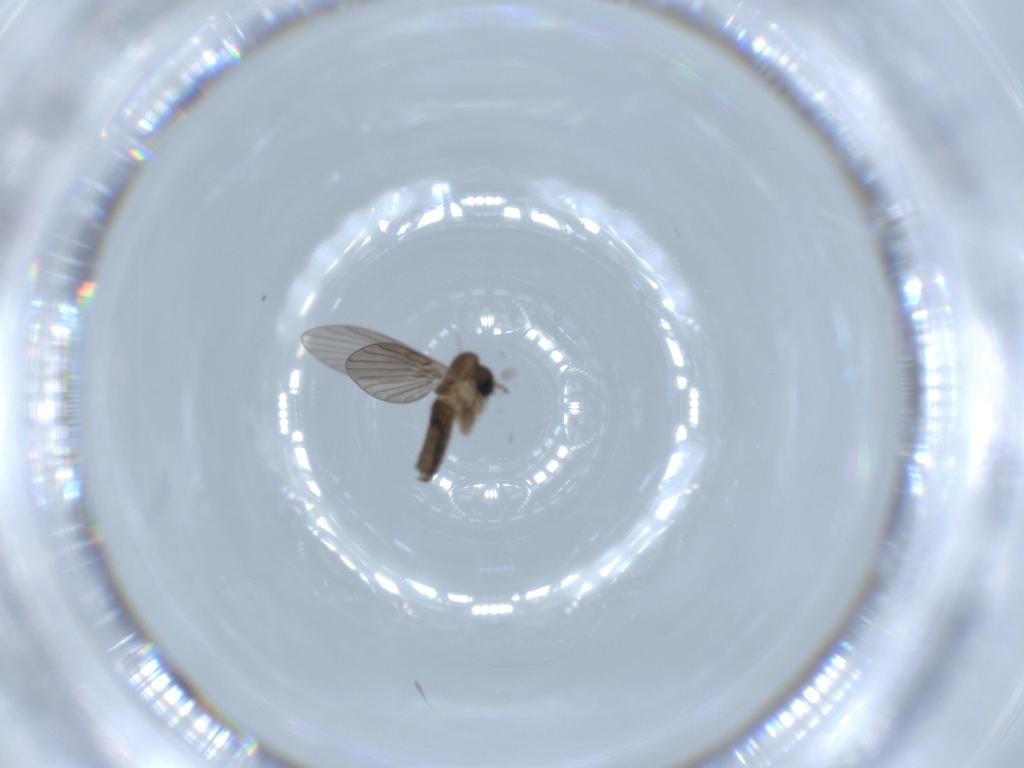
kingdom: Animalia
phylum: Arthropoda
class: Insecta
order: Diptera
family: Psychodidae
